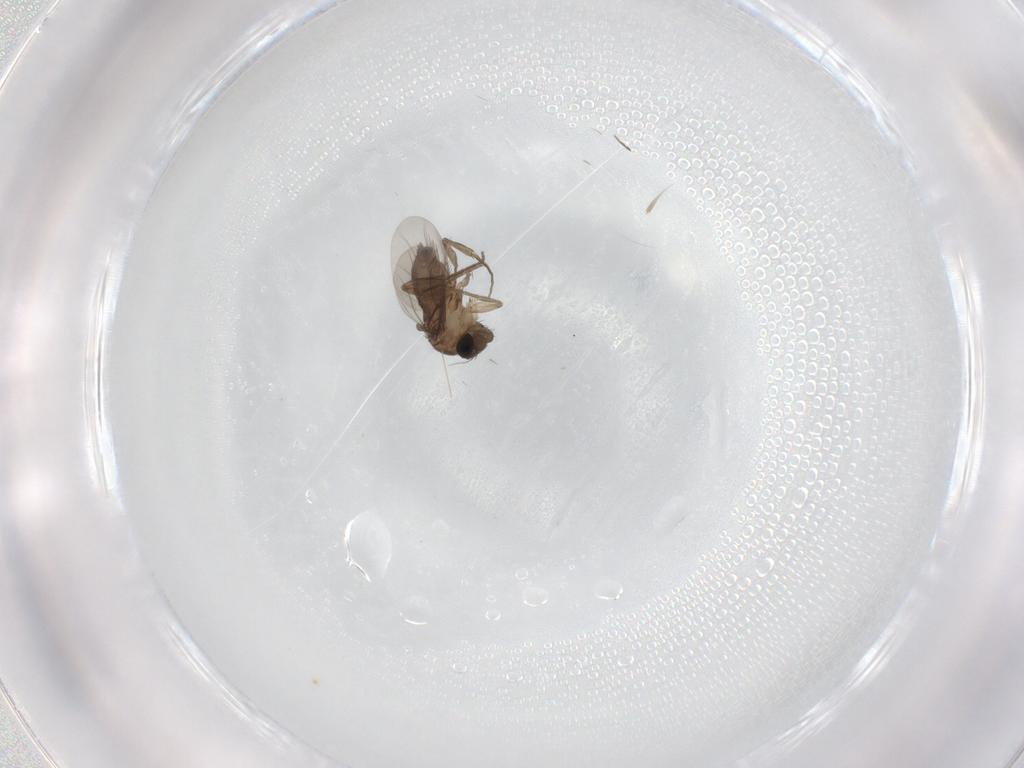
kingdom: Animalia
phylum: Arthropoda
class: Insecta
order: Diptera
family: Phoridae
